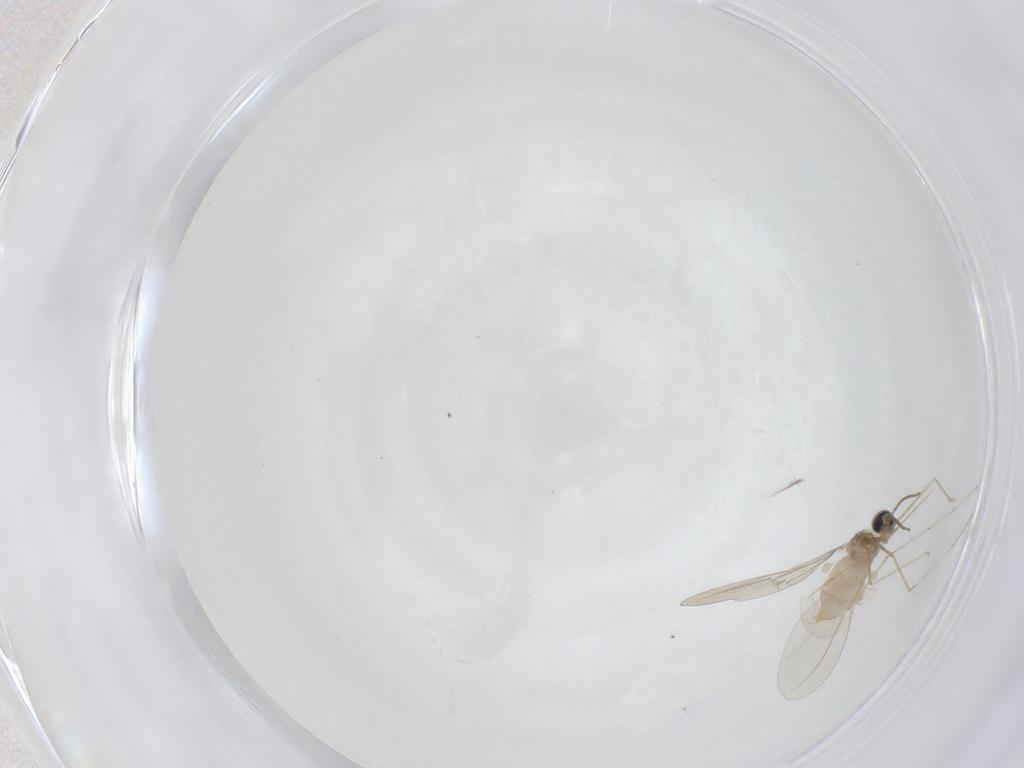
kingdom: Animalia
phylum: Arthropoda
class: Insecta
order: Diptera
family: Cecidomyiidae
